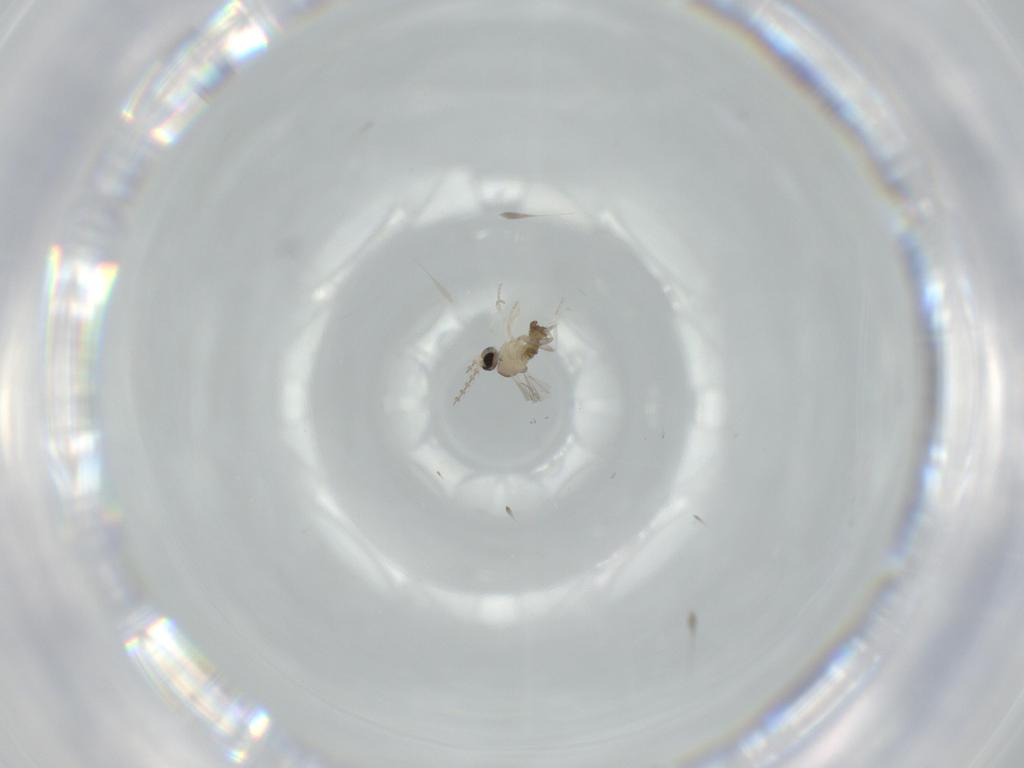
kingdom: Animalia
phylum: Arthropoda
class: Insecta
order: Diptera
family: Cecidomyiidae
